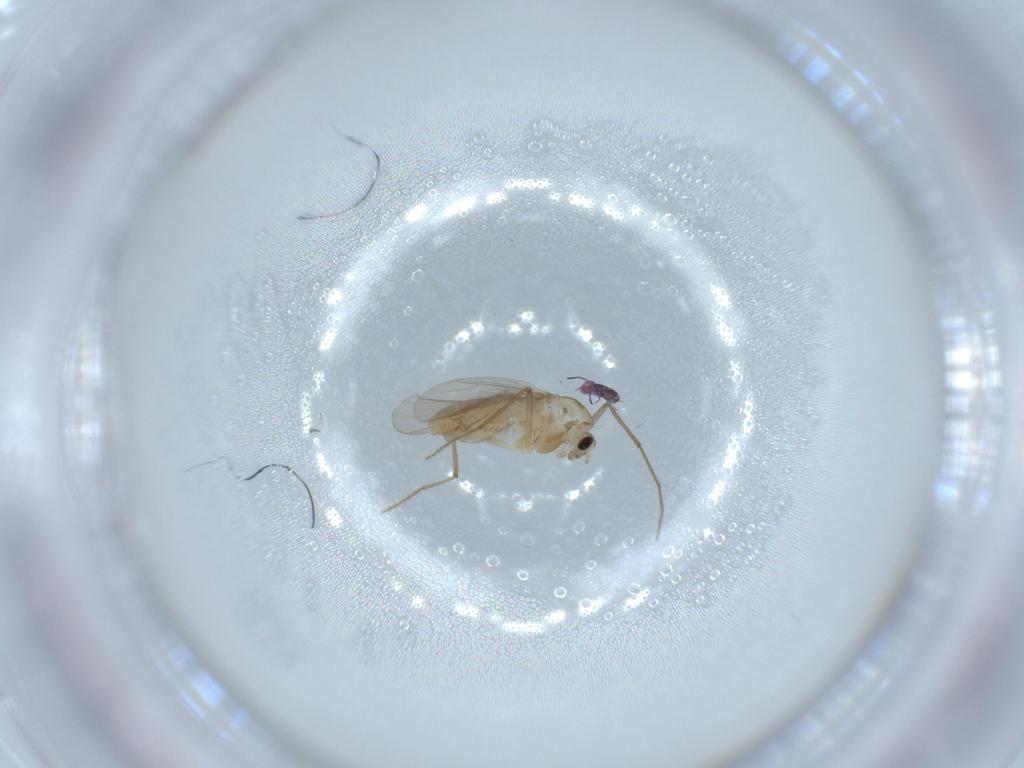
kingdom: Animalia
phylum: Arthropoda
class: Insecta
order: Diptera
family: Chironomidae
